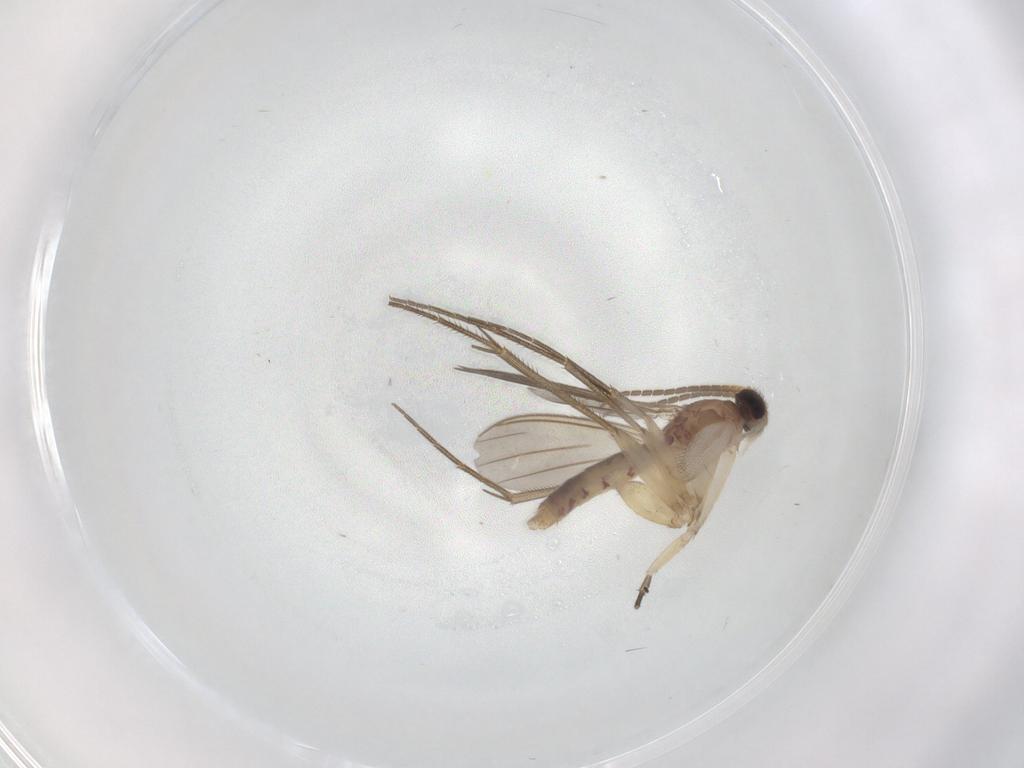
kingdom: Animalia
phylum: Arthropoda
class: Insecta
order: Diptera
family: Mycetophilidae
